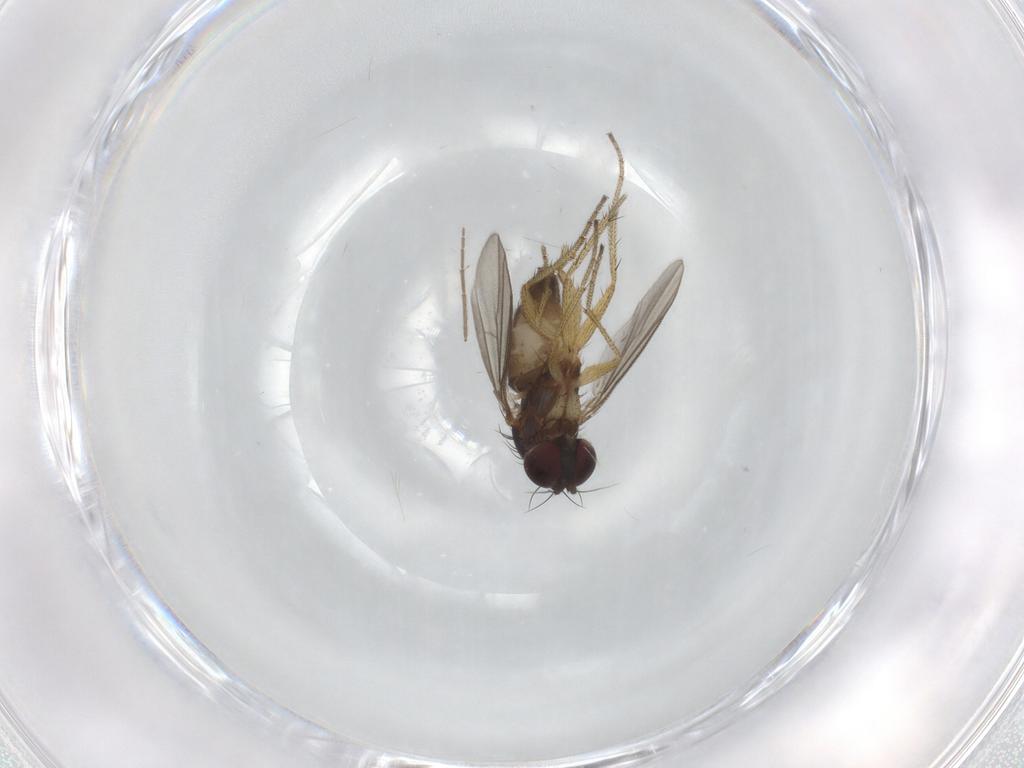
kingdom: Animalia
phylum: Arthropoda
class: Insecta
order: Diptera
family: Dolichopodidae
